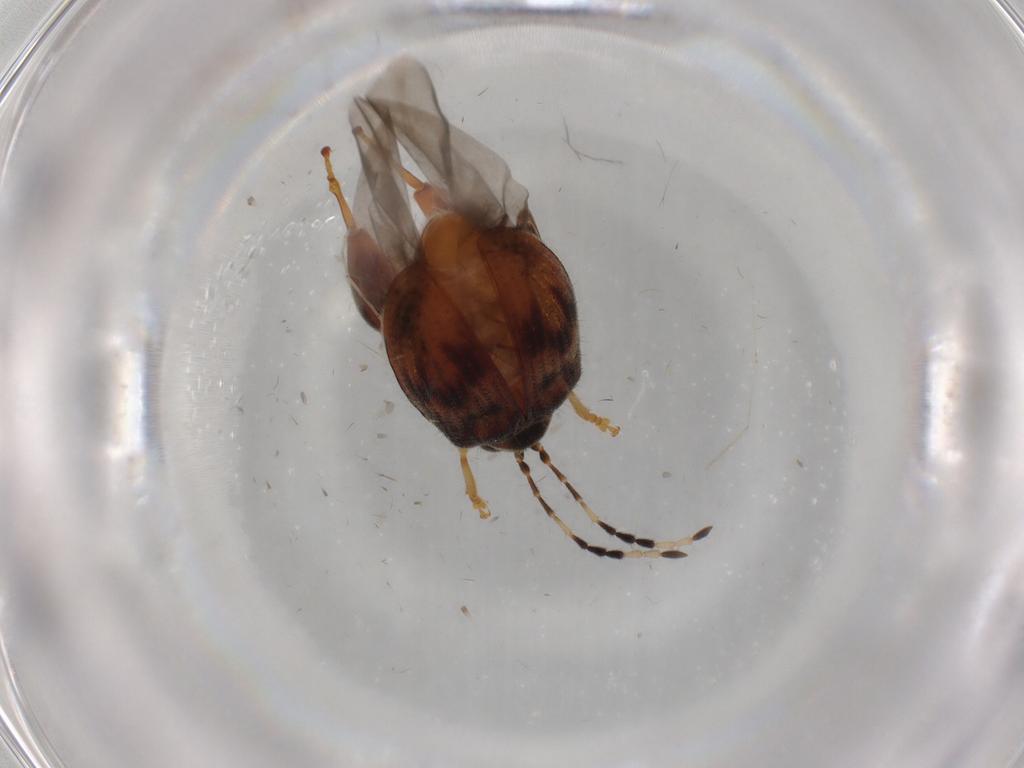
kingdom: Animalia
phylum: Arthropoda
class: Insecta
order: Coleoptera
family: Chrysomelidae
